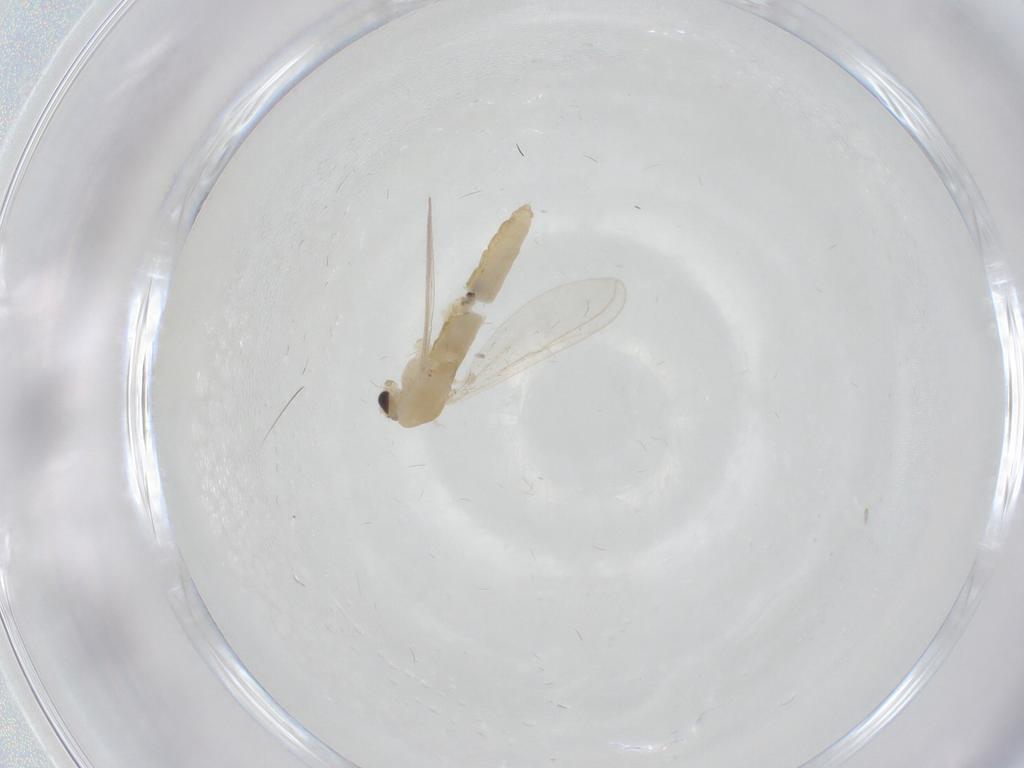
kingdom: Animalia
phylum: Arthropoda
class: Insecta
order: Diptera
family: Chironomidae
